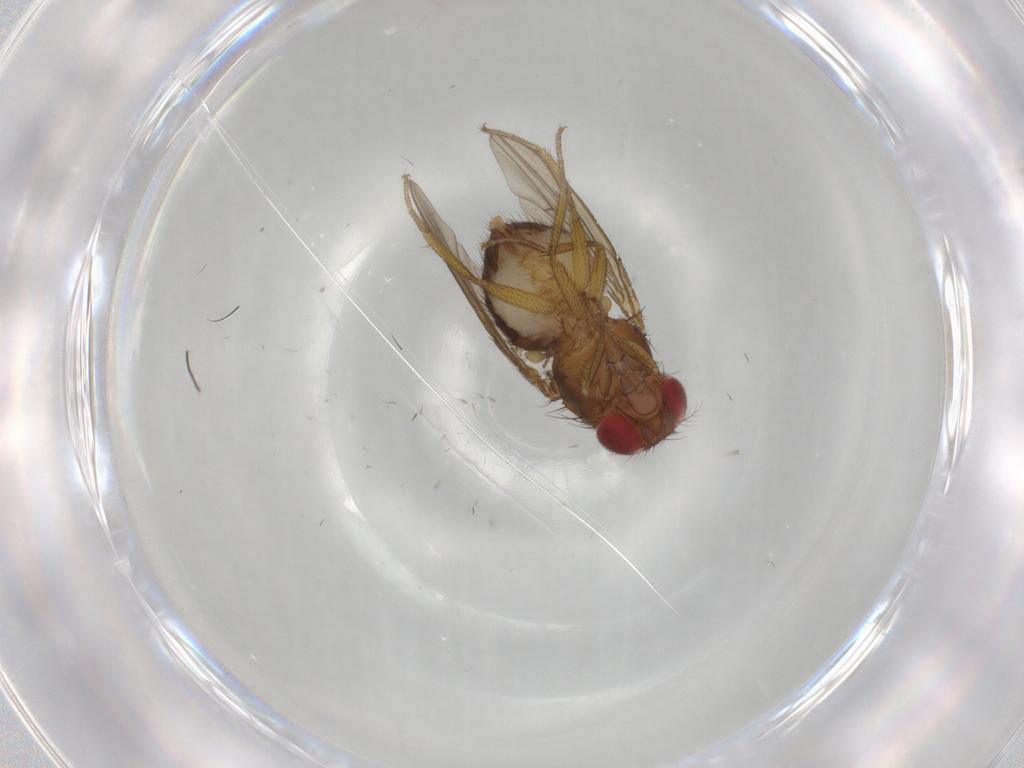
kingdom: Animalia
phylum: Arthropoda
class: Insecta
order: Diptera
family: Drosophilidae
